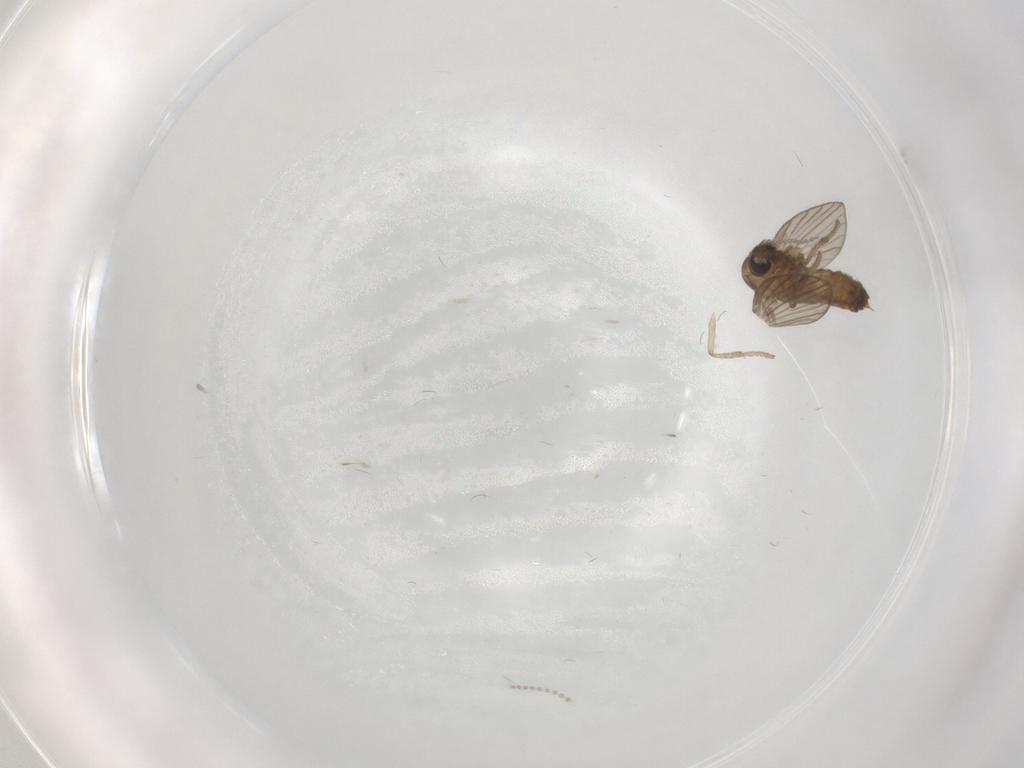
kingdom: Animalia
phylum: Arthropoda
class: Insecta
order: Diptera
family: Psychodidae
